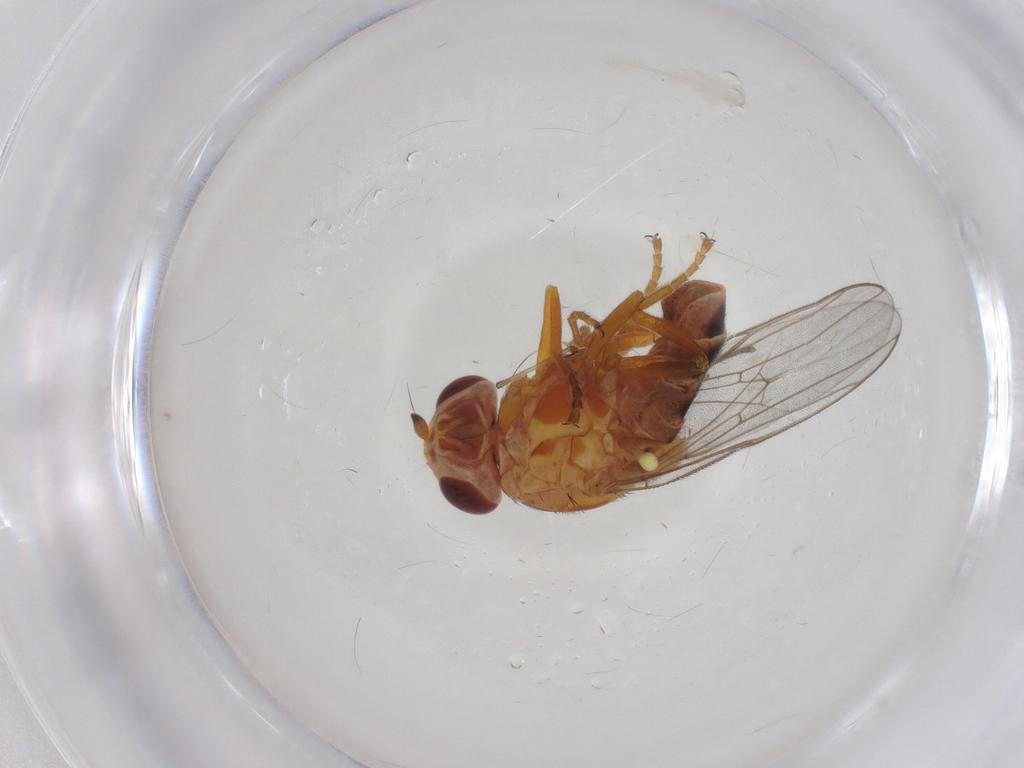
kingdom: Animalia
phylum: Arthropoda
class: Insecta
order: Diptera
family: Chloropidae
